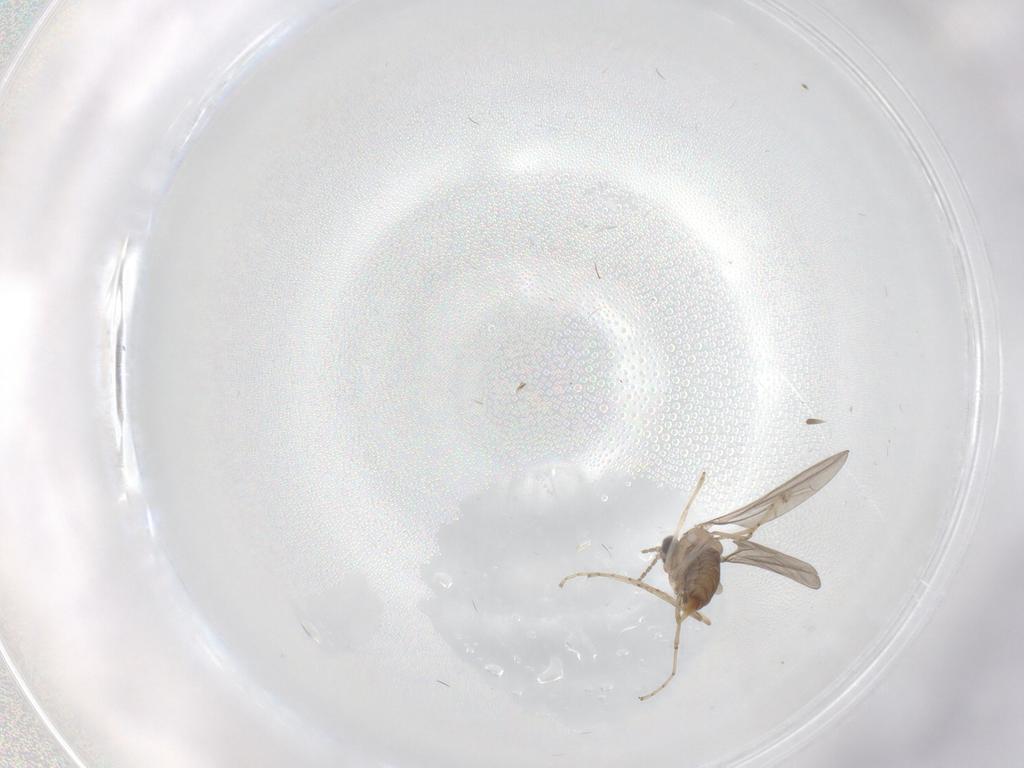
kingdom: Animalia
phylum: Arthropoda
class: Insecta
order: Diptera
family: Ceratopogonidae
